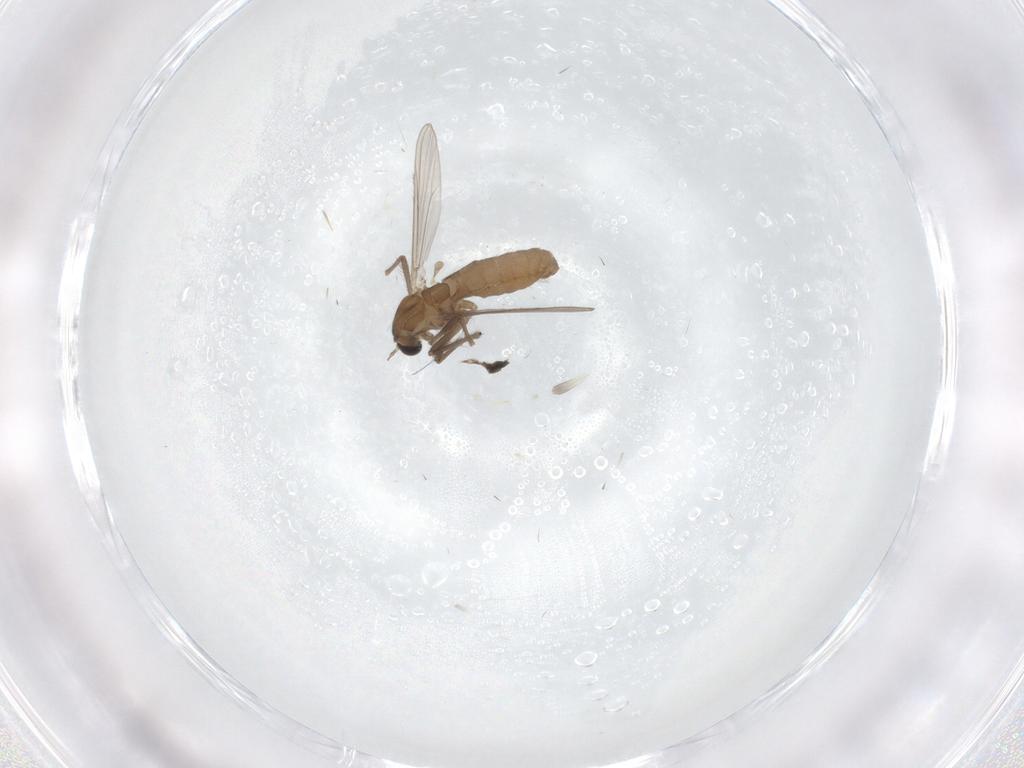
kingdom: Animalia
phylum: Arthropoda
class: Insecta
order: Diptera
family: Chironomidae
